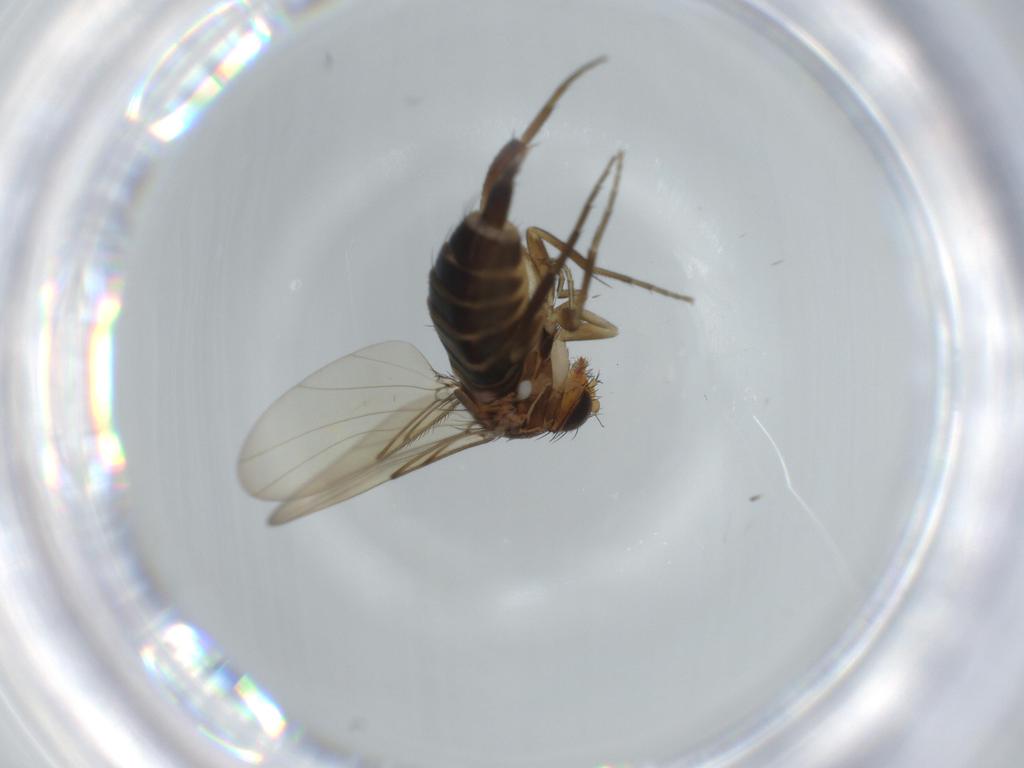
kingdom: Animalia
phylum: Arthropoda
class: Insecta
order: Diptera
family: Phoridae
